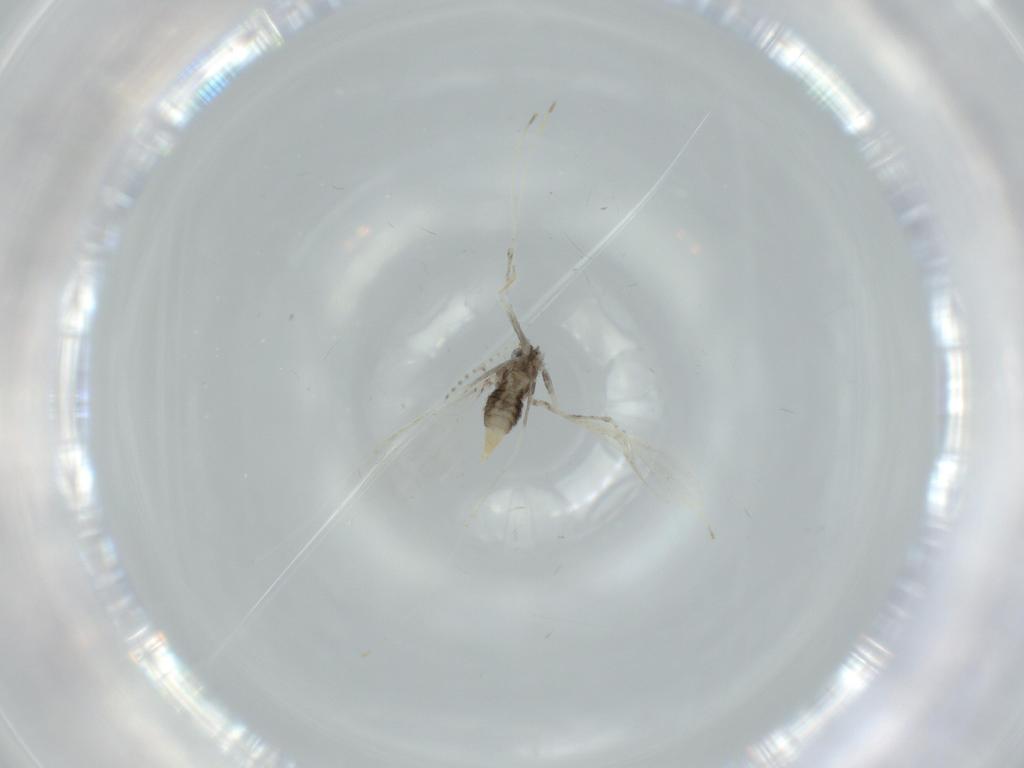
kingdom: Animalia
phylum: Arthropoda
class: Insecta
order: Diptera
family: Cecidomyiidae
